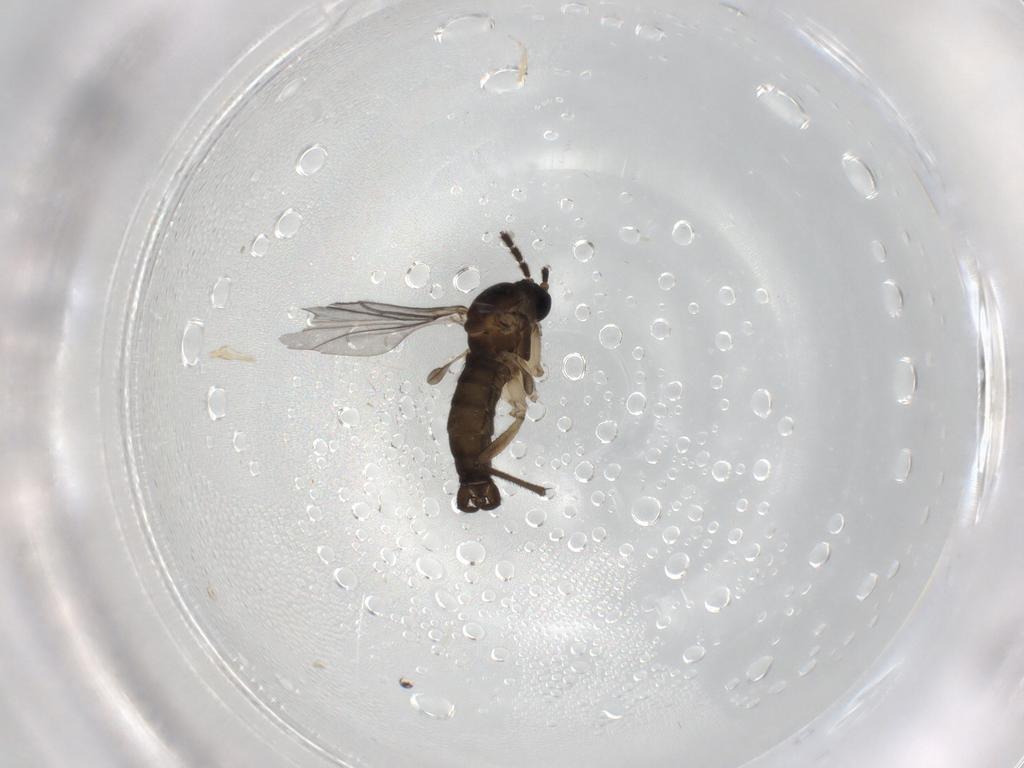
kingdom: Animalia
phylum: Arthropoda
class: Insecta
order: Diptera
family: Sciaridae
